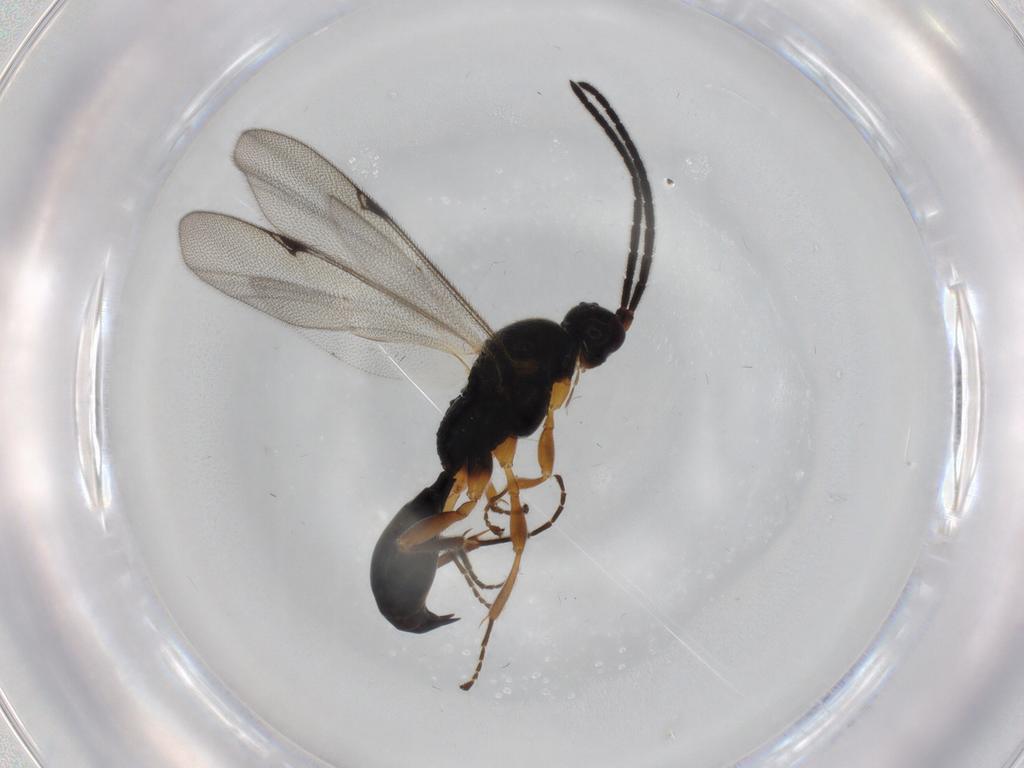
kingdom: Animalia
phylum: Arthropoda
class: Insecta
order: Hymenoptera
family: Proctotrupidae
